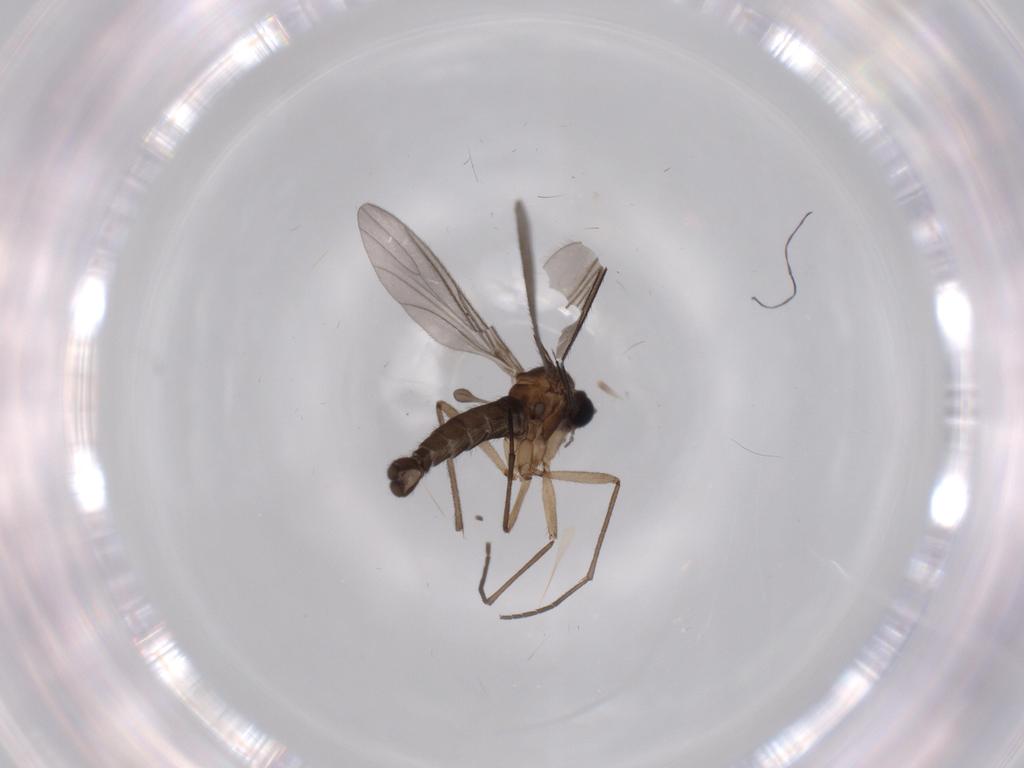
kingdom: Animalia
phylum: Arthropoda
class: Insecta
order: Diptera
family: Sciaridae
